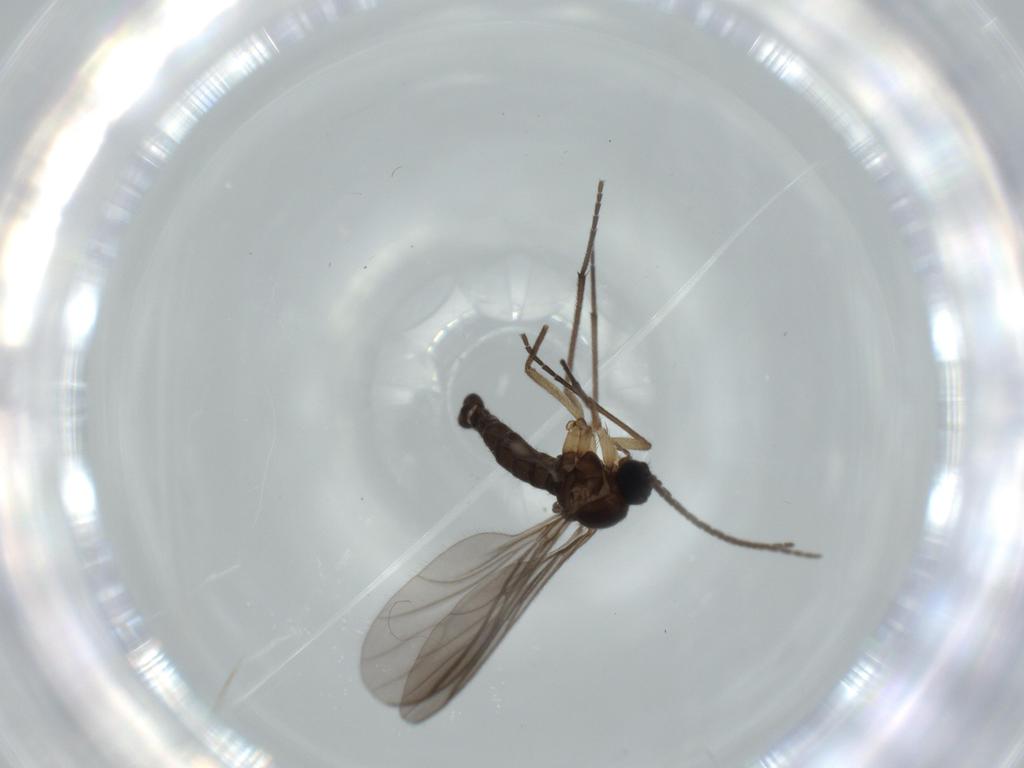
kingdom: Animalia
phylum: Arthropoda
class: Insecta
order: Diptera
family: Sciaridae
